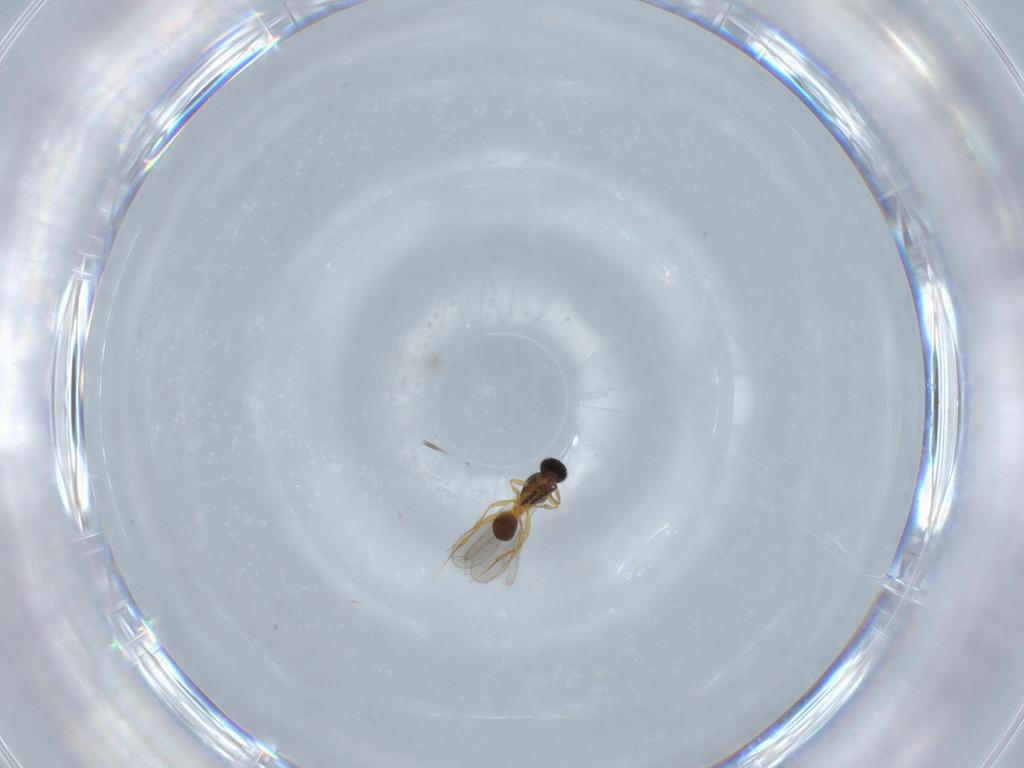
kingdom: Animalia
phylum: Arthropoda
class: Insecta
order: Hymenoptera
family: Platygastridae
